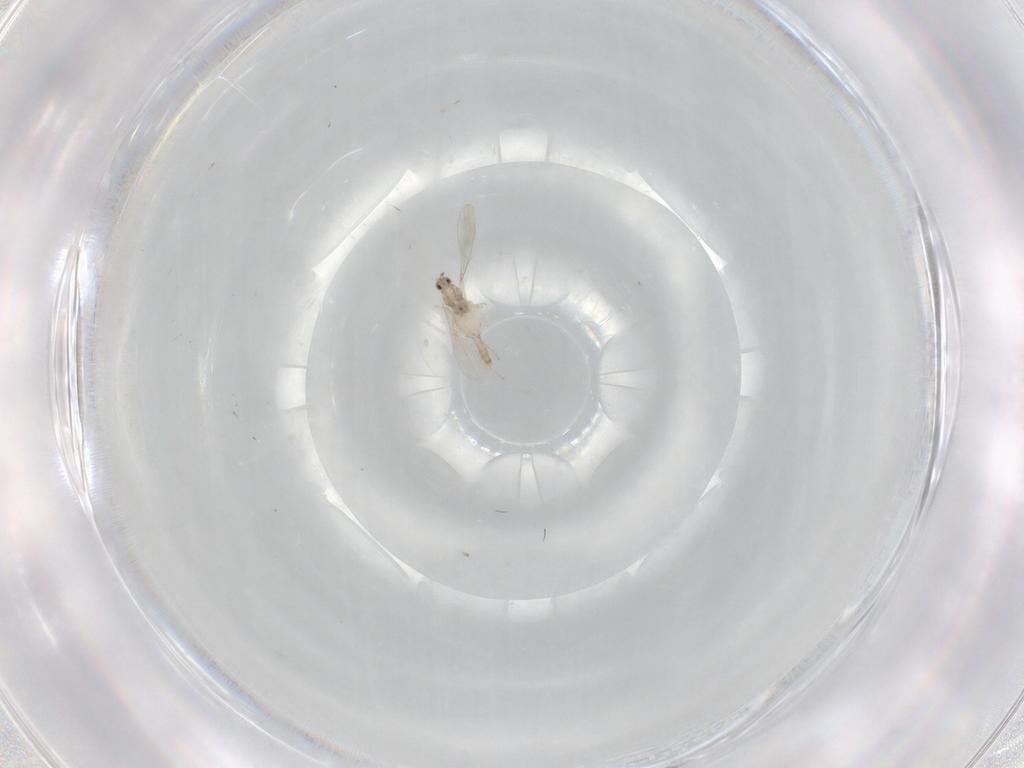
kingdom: Animalia
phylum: Arthropoda
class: Insecta
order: Diptera
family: Cecidomyiidae
